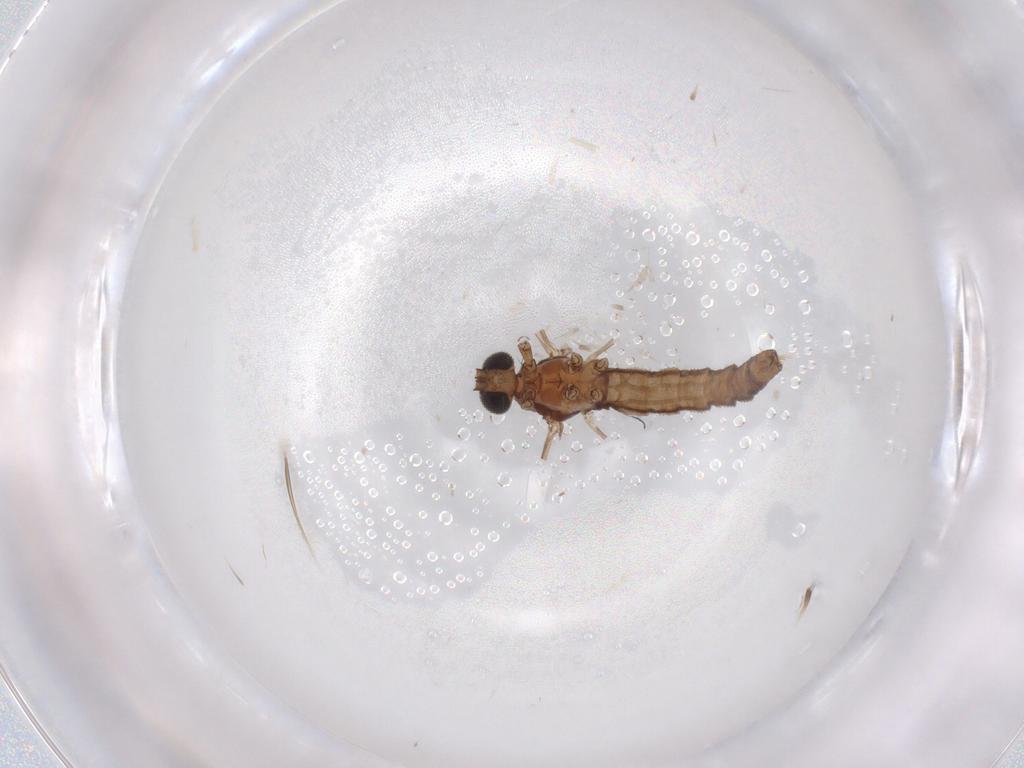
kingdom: Animalia
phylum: Arthropoda
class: Insecta
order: Diptera
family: Limoniidae
